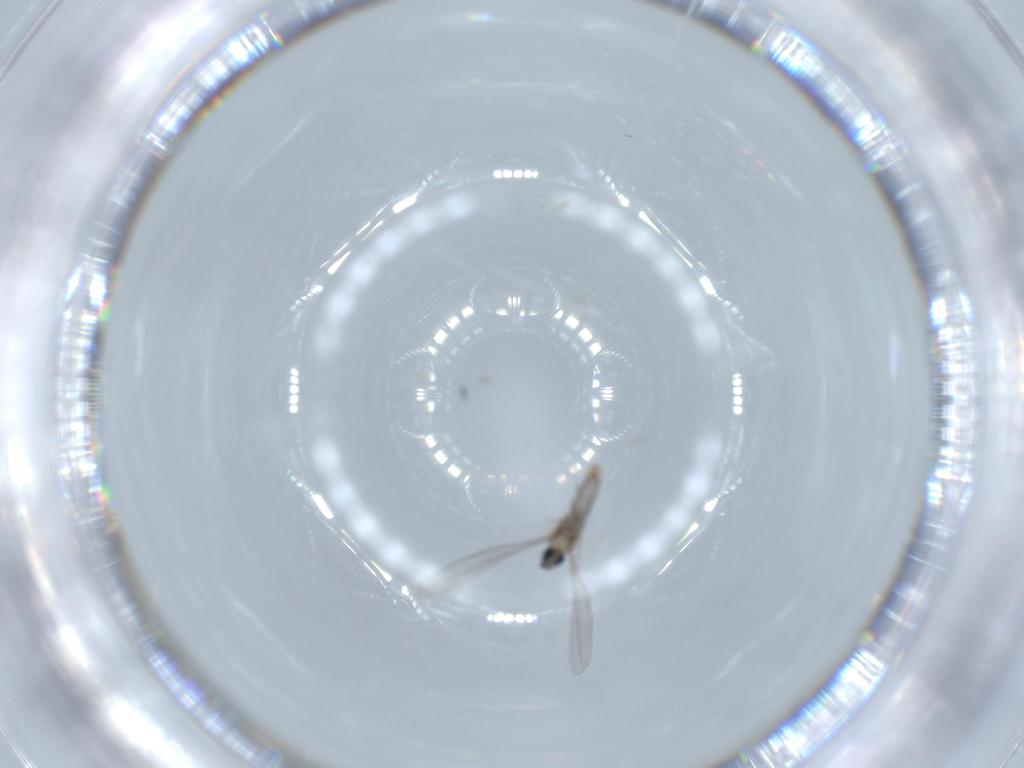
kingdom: Animalia
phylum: Arthropoda
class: Insecta
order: Diptera
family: Cecidomyiidae
